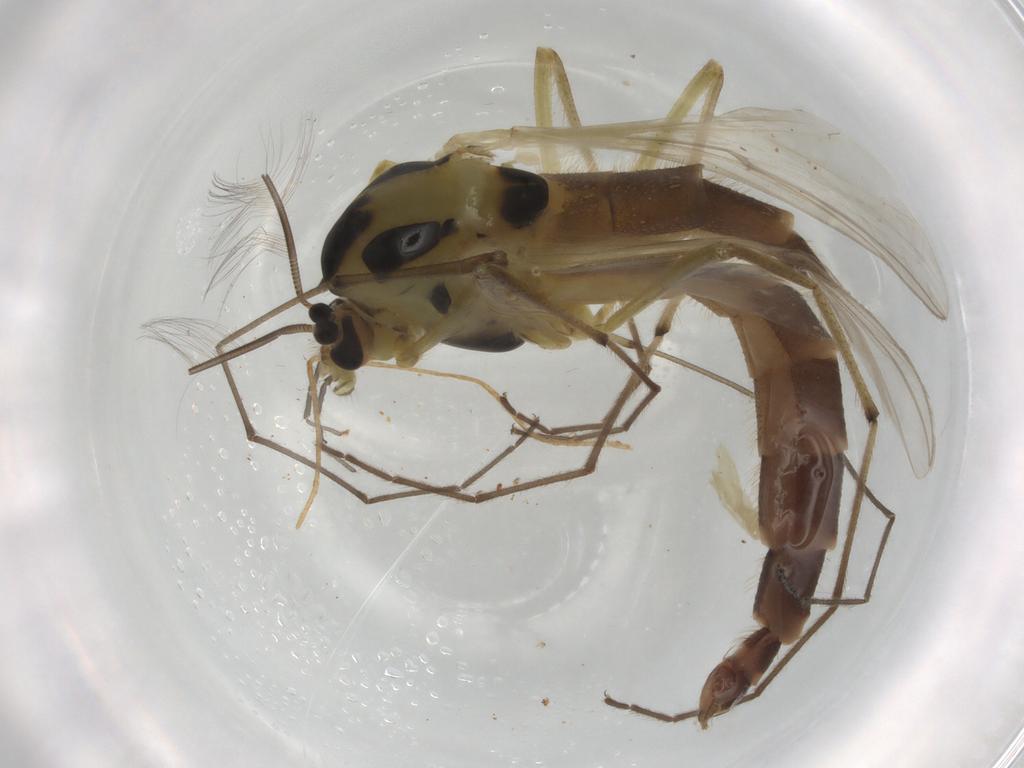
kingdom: Animalia
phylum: Arthropoda
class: Insecta
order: Diptera
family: Chironomidae
